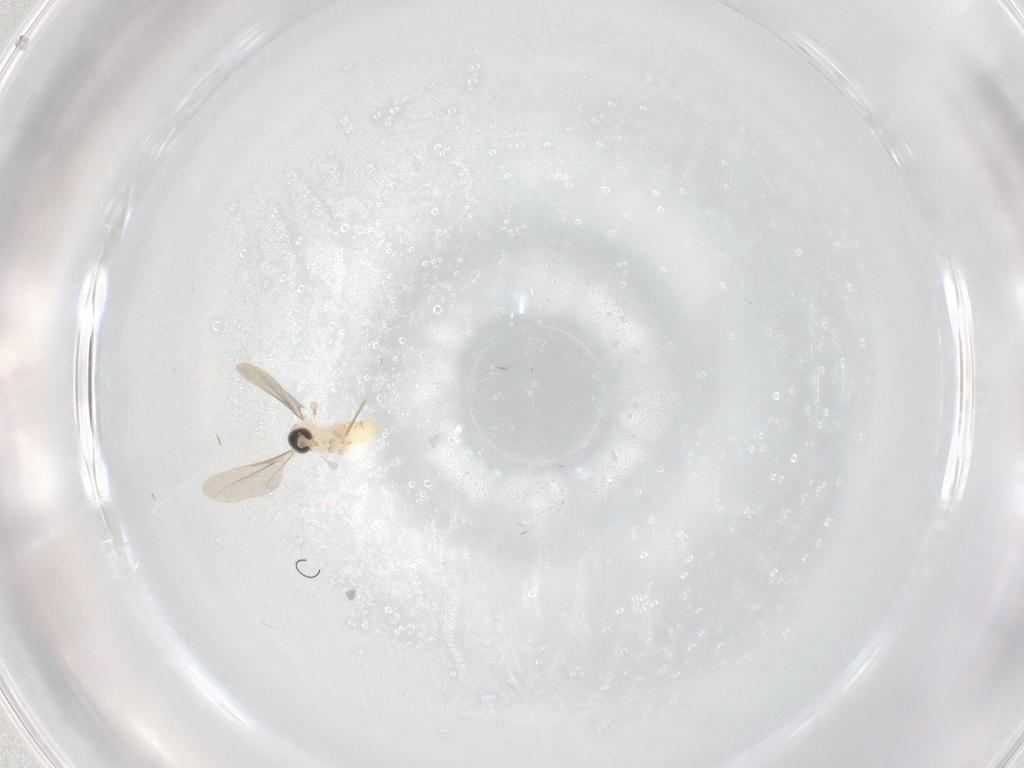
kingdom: Animalia
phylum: Arthropoda
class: Insecta
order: Diptera
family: Cecidomyiidae
